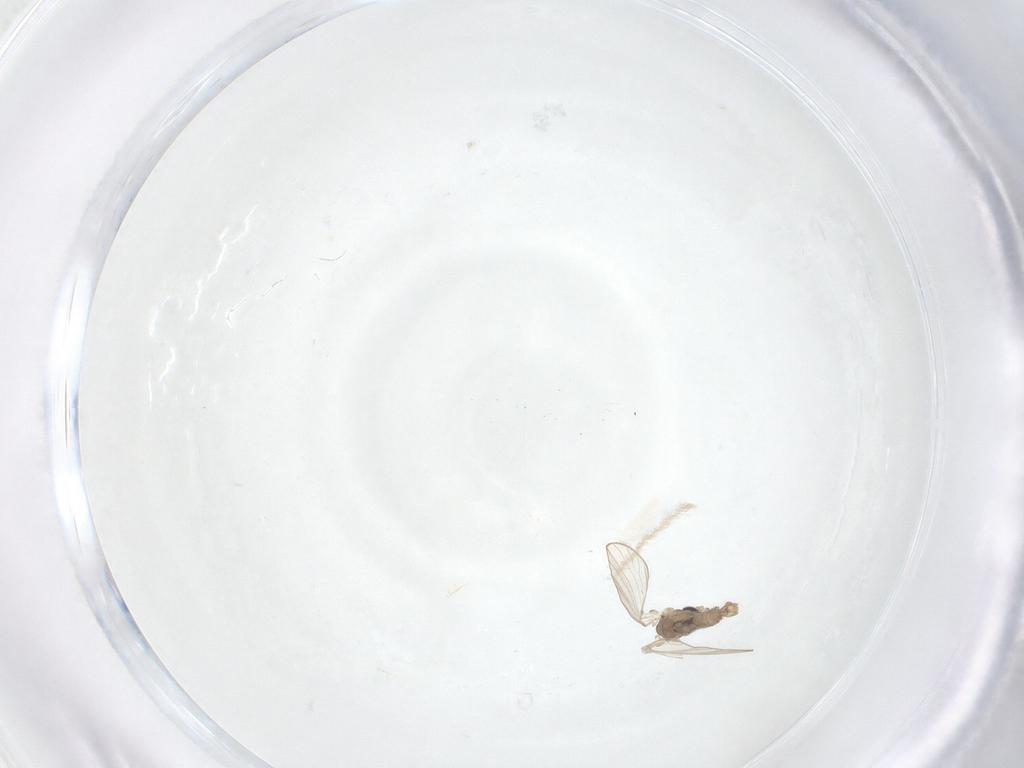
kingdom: Animalia
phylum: Arthropoda
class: Insecta
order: Diptera
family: Psychodidae
